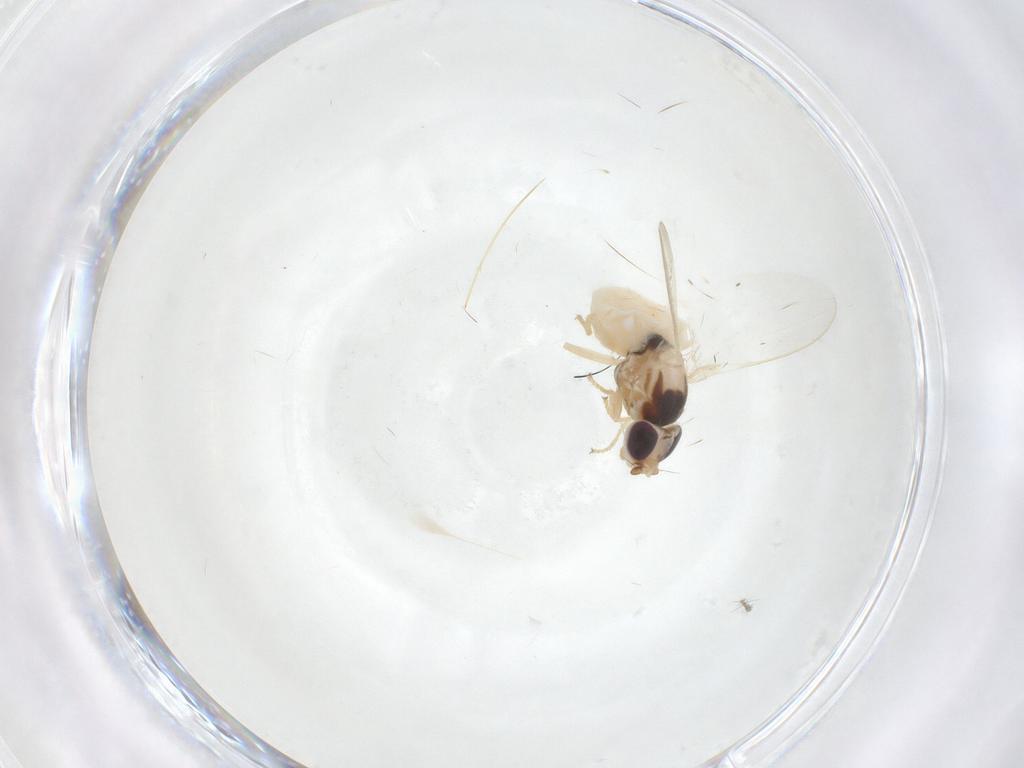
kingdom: Animalia
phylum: Arthropoda
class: Insecta
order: Diptera
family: Chloropidae
